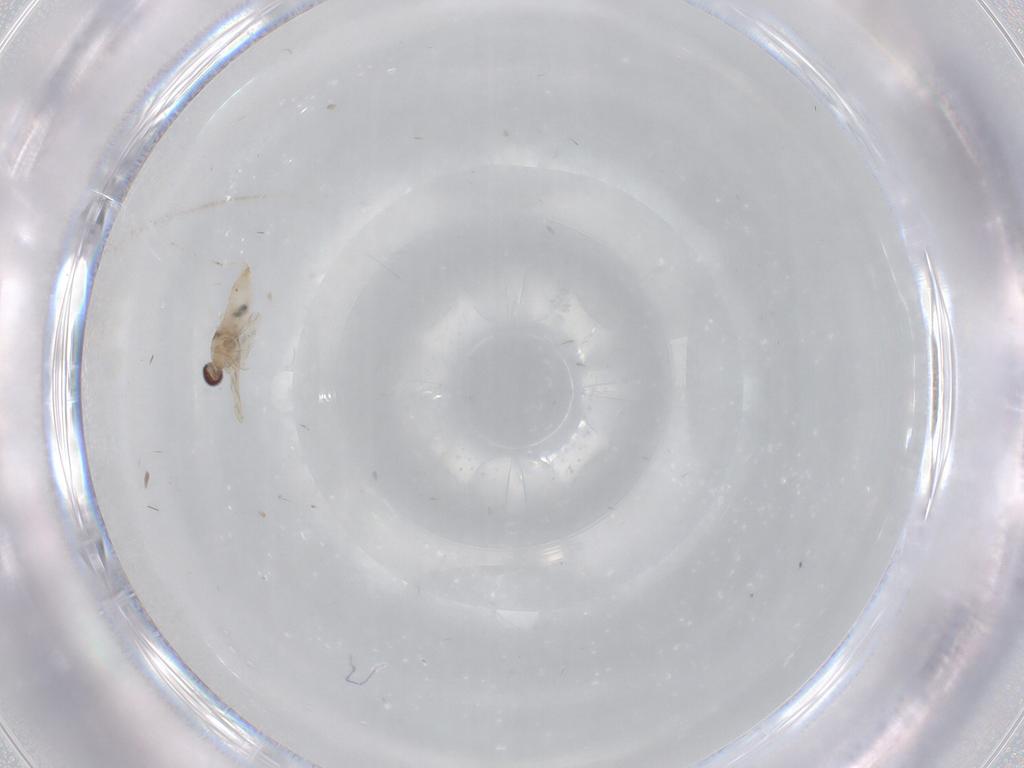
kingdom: Animalia
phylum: Arthropoda
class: Insecta
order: Diptera
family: Cecidomyiidae
